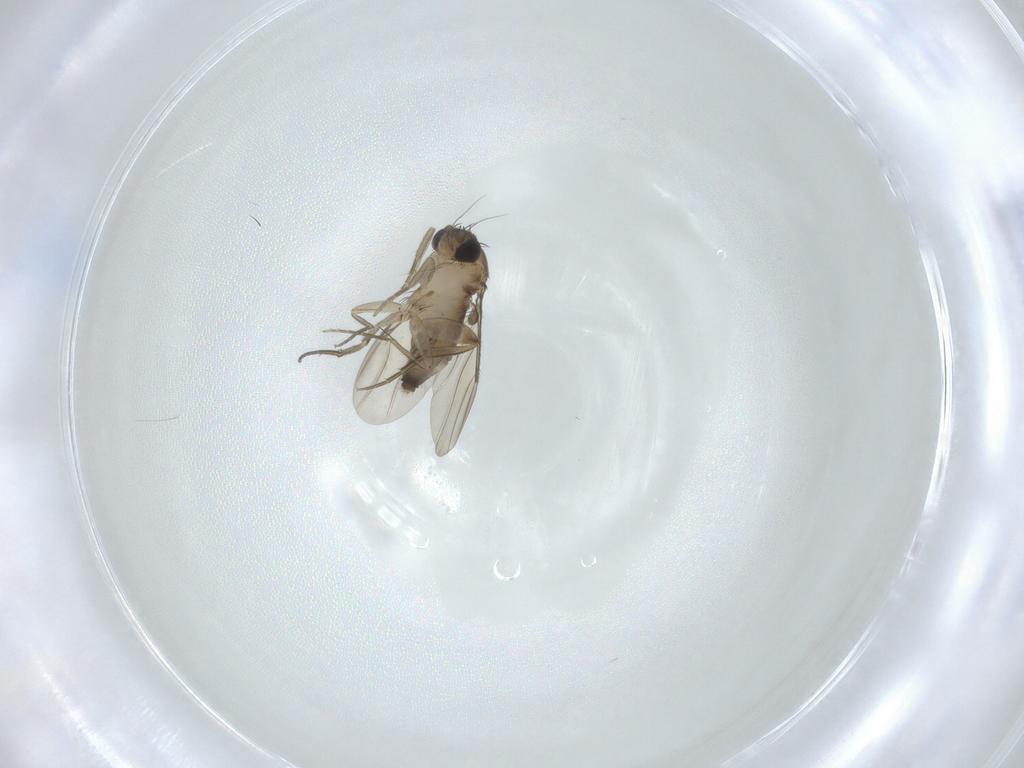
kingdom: Animalia
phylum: Arthropoda
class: Insecta
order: Diptera
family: Phoridae
